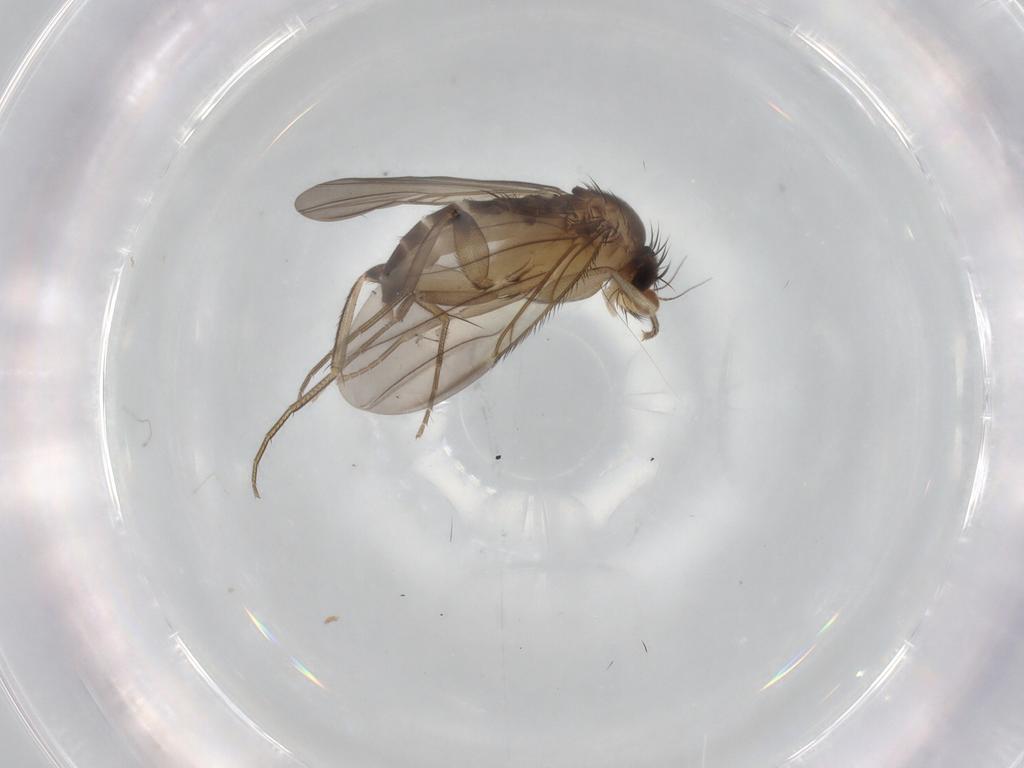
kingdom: Animalia
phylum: Arthropoda
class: Insecta
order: Diptera
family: Phoridae
